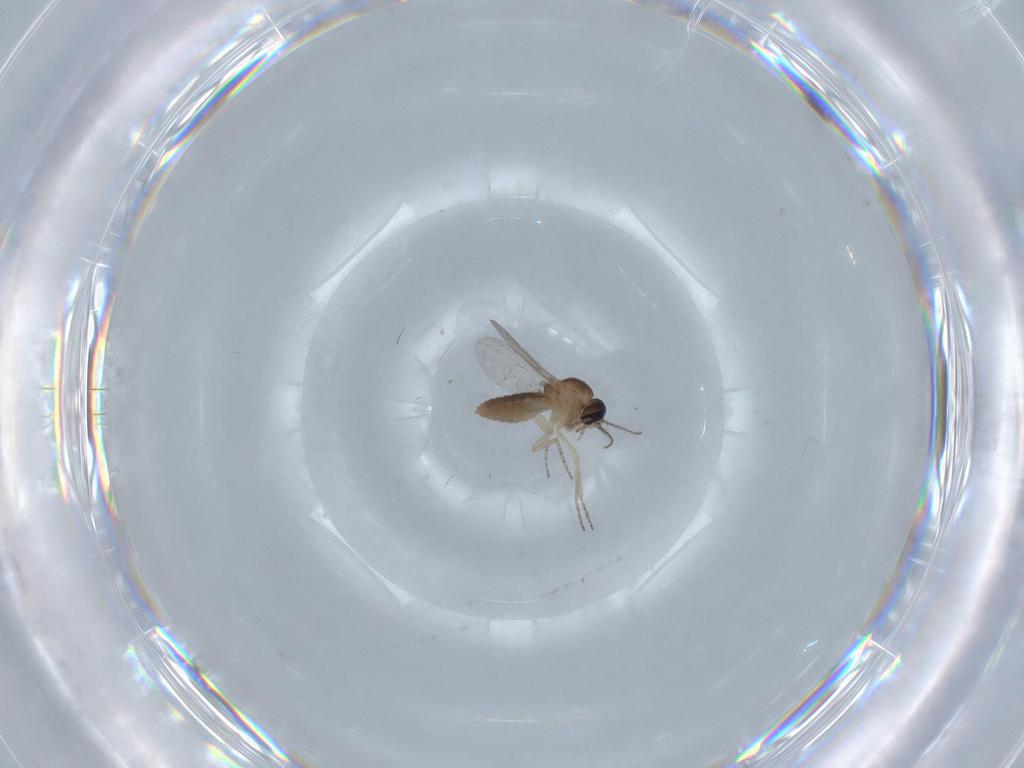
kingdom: Animalia
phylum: Arthropoda
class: Insecta
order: Diptera
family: Ceratopogonidae
